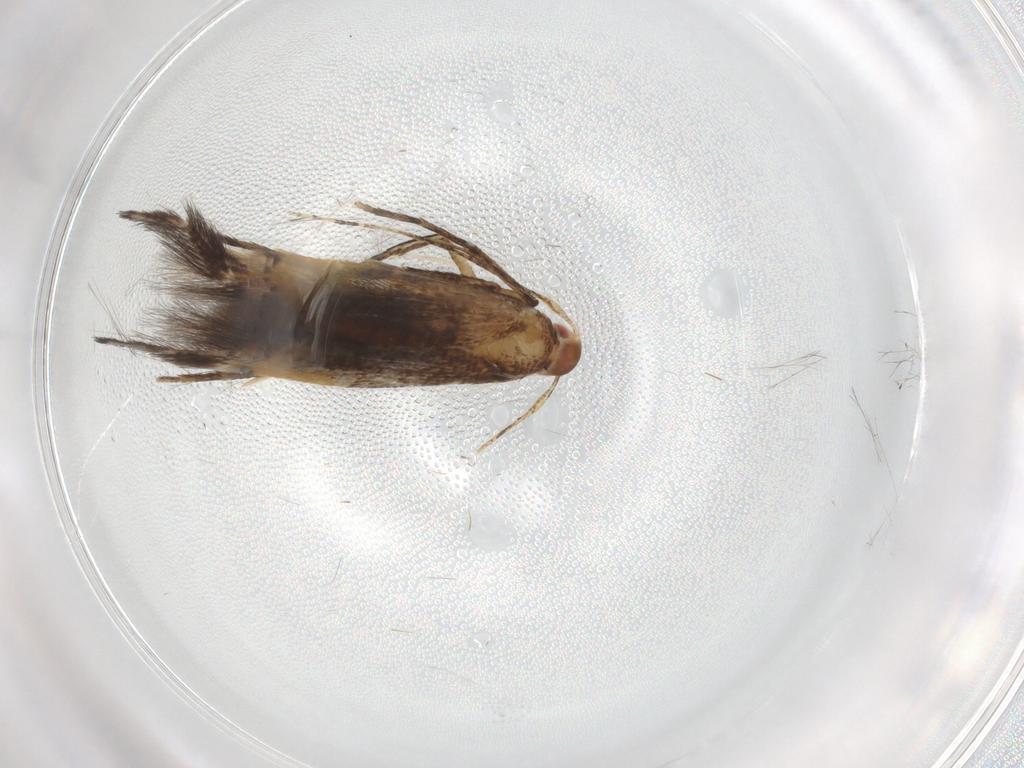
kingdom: Animalia
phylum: Arthropoda
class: Insecta
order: Lepidoptera
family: Cosmopterigidae
